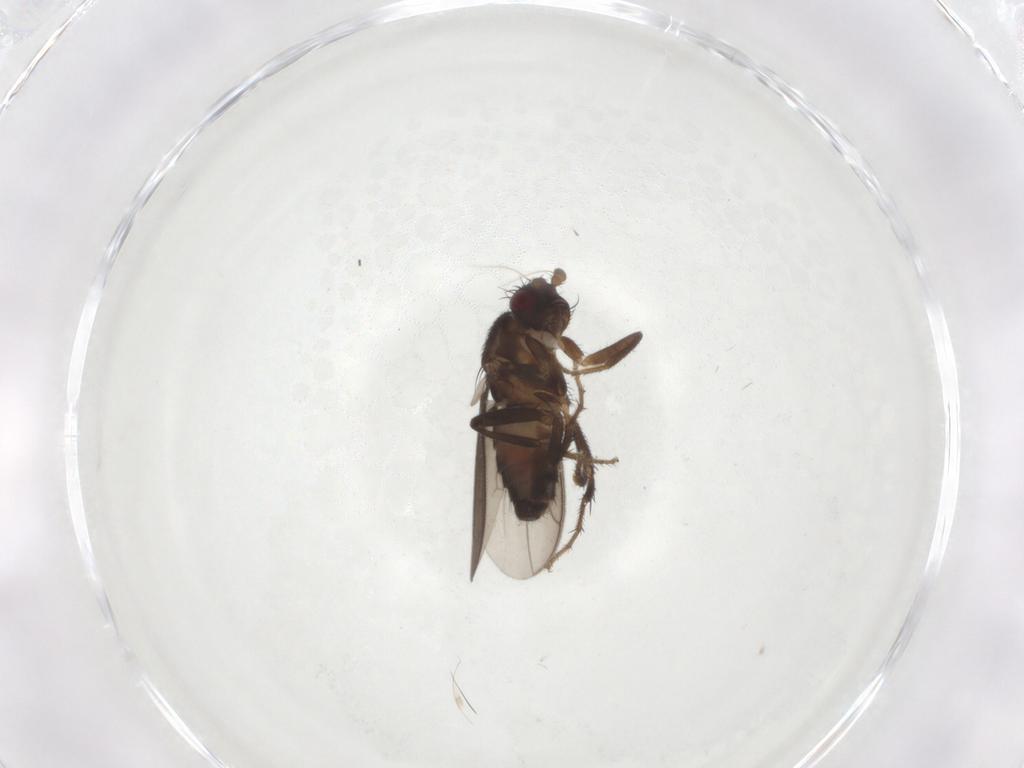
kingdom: Animalia
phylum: Arthropoda
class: Insecta
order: Diptera
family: Sphaeroceridae
